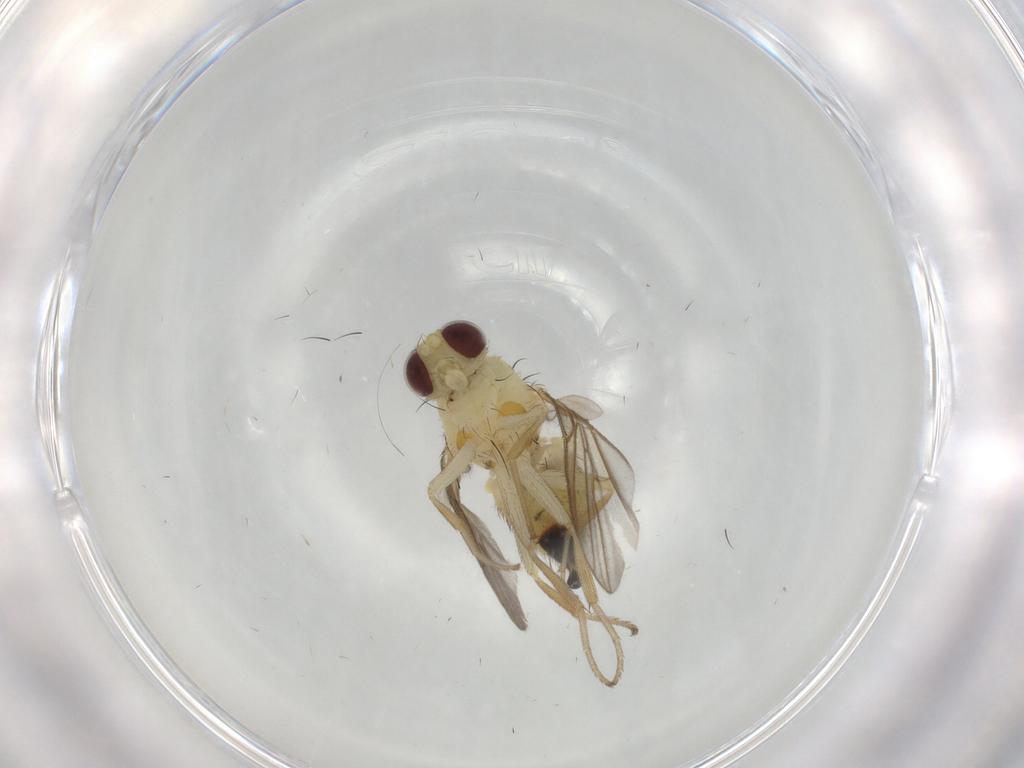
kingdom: Animalia
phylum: Arthropoda
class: Insecta
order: Diptera
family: Agromyzidae
